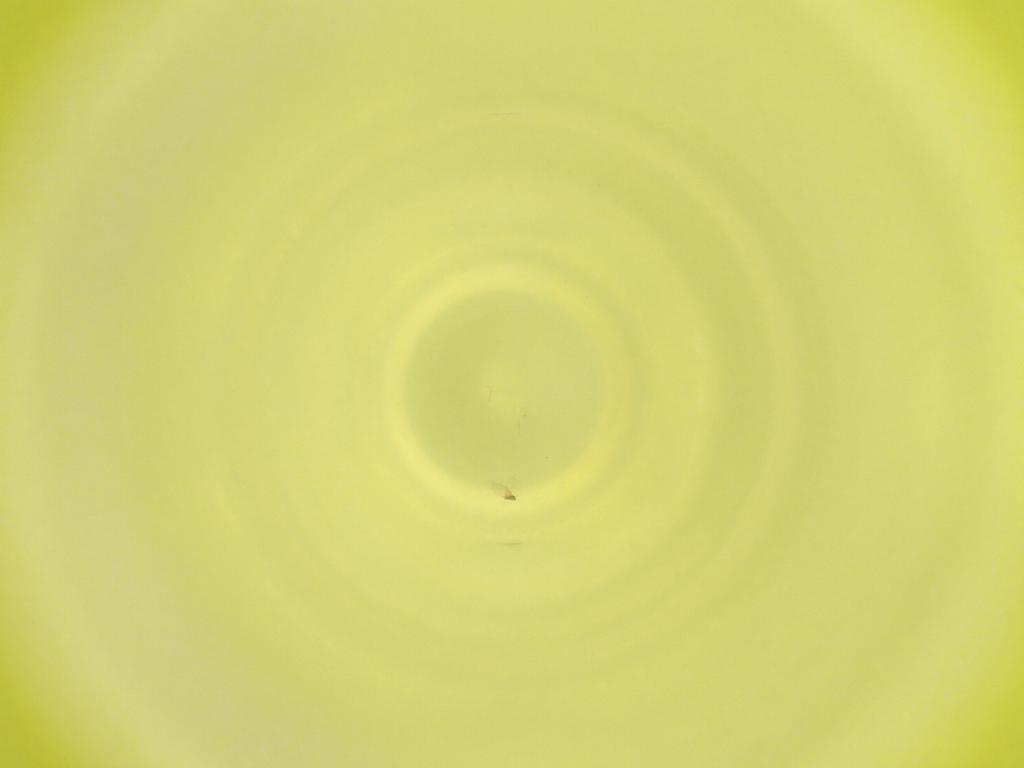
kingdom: Animalia
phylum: Arthropoda
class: Insecta
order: Diptera
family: Cecidomyiidae
